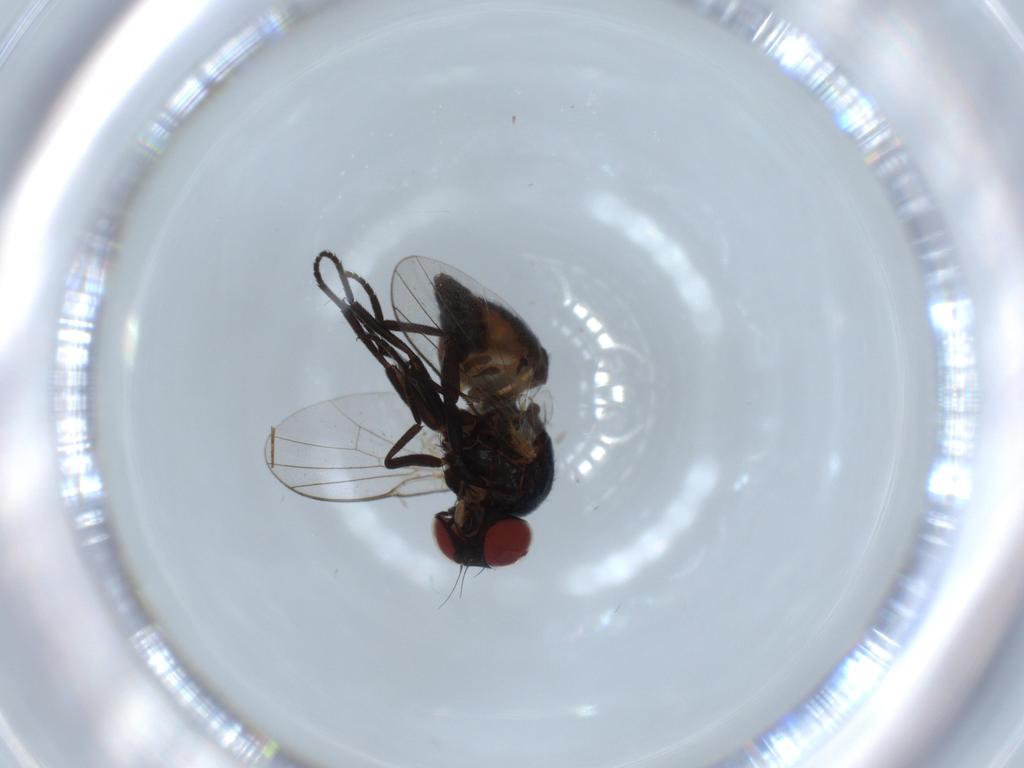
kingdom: Animalia
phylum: Arthropoda
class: Insecta
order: Diptera
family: Agromyzidae
